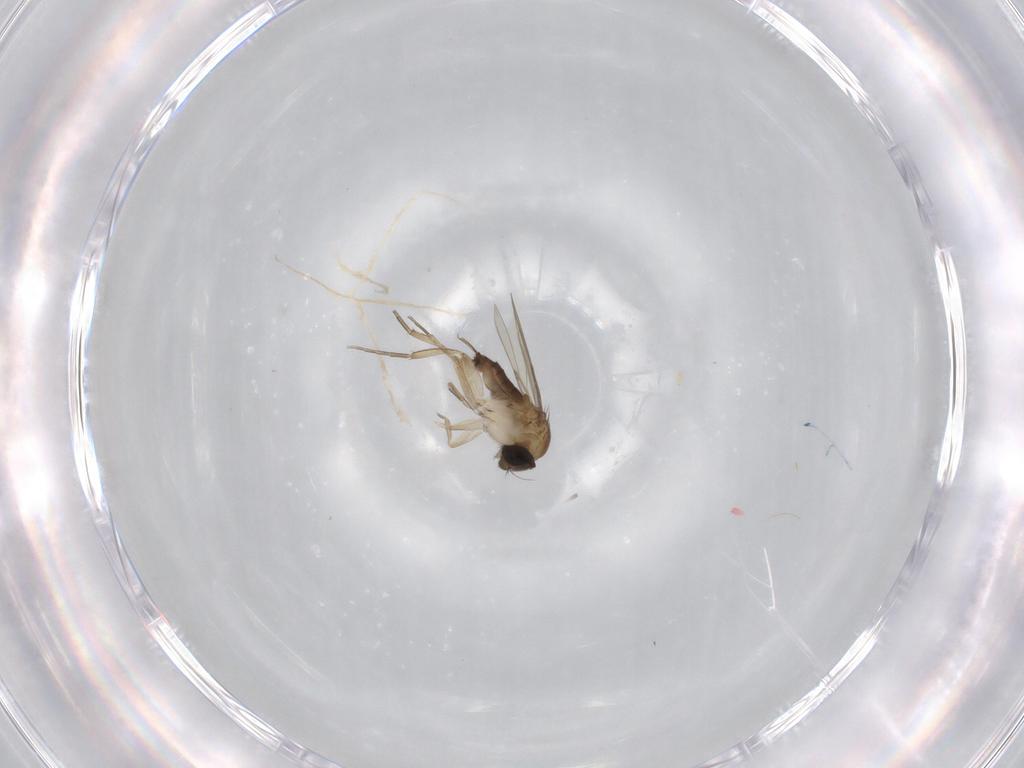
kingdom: Animalia
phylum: Arthropoda
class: Insecta
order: Diptera
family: Phoridae
